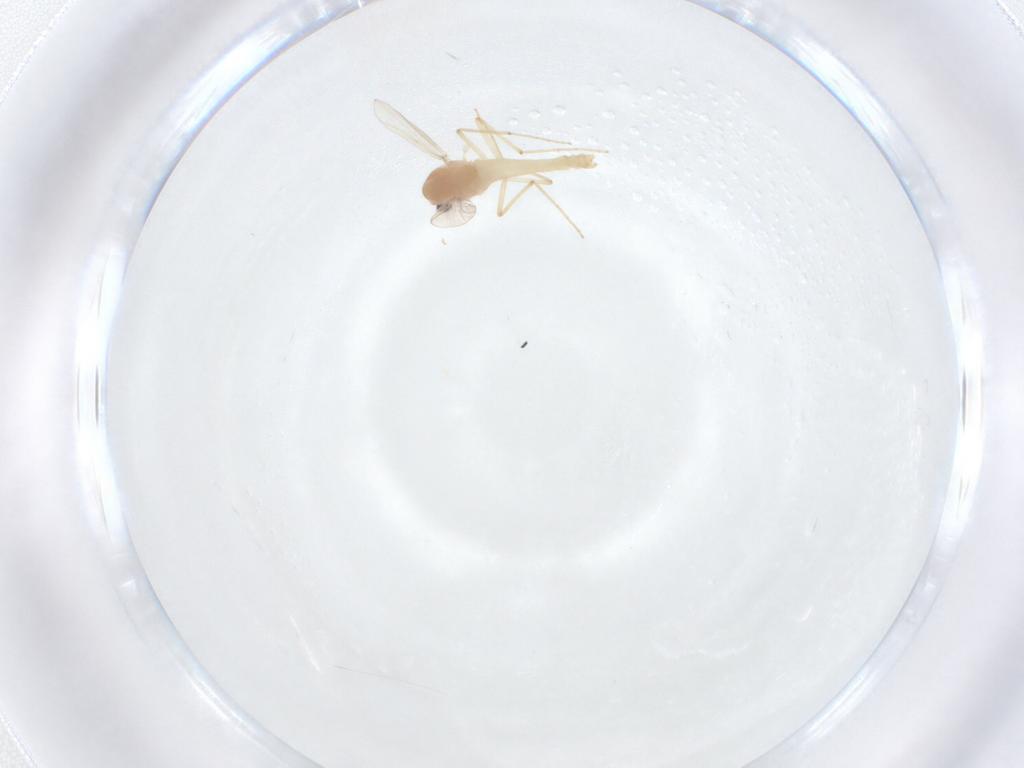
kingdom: Animalia
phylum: Arthropoda
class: Insecta
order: Diptera
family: Chironomidae
